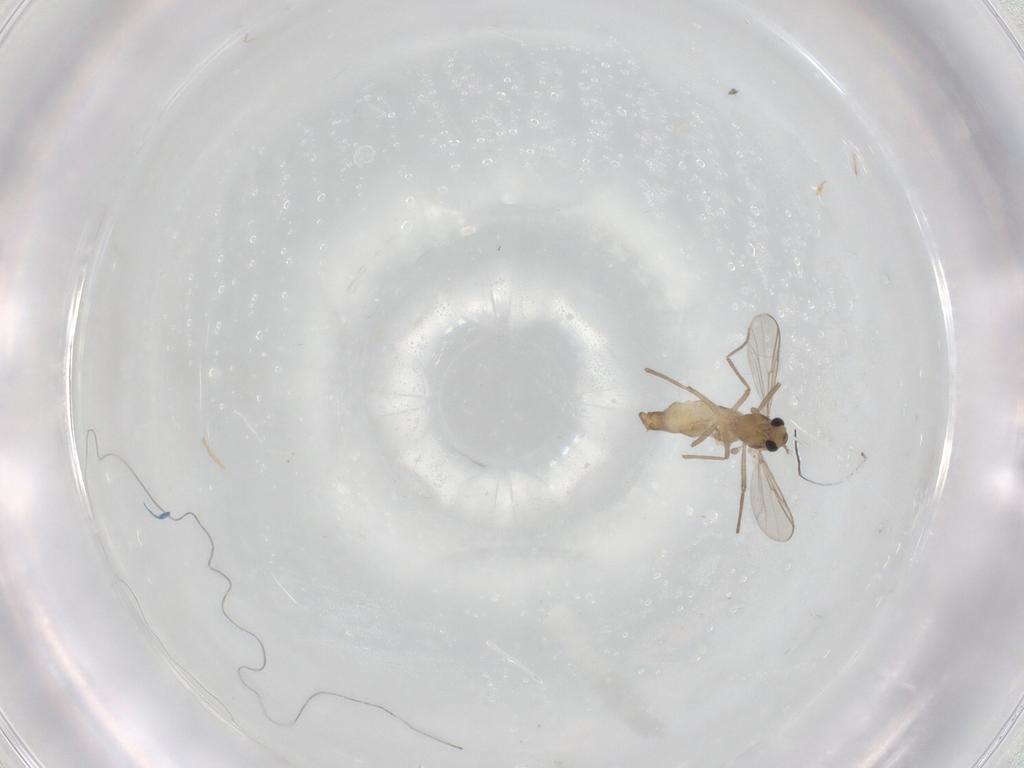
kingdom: Animalia
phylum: Arthropoda
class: Insecta
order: Diptera
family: Chironomidae
